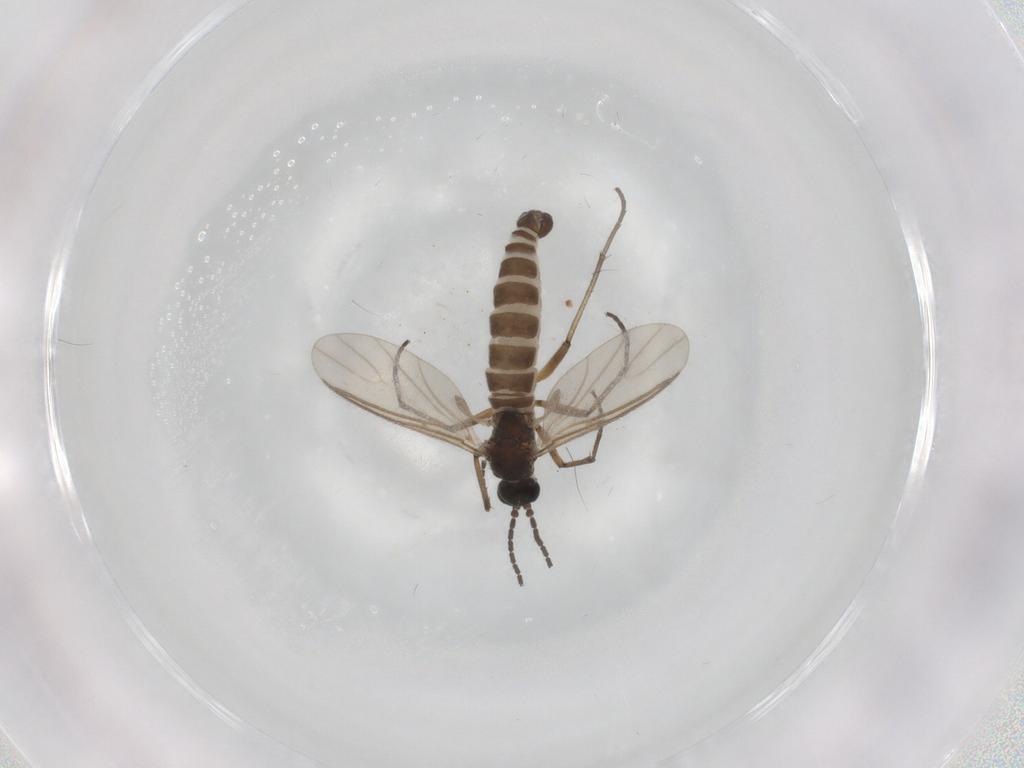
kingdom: Animalia
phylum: Arthropoda
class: Insecta
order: Diptera
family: Sciaridae
